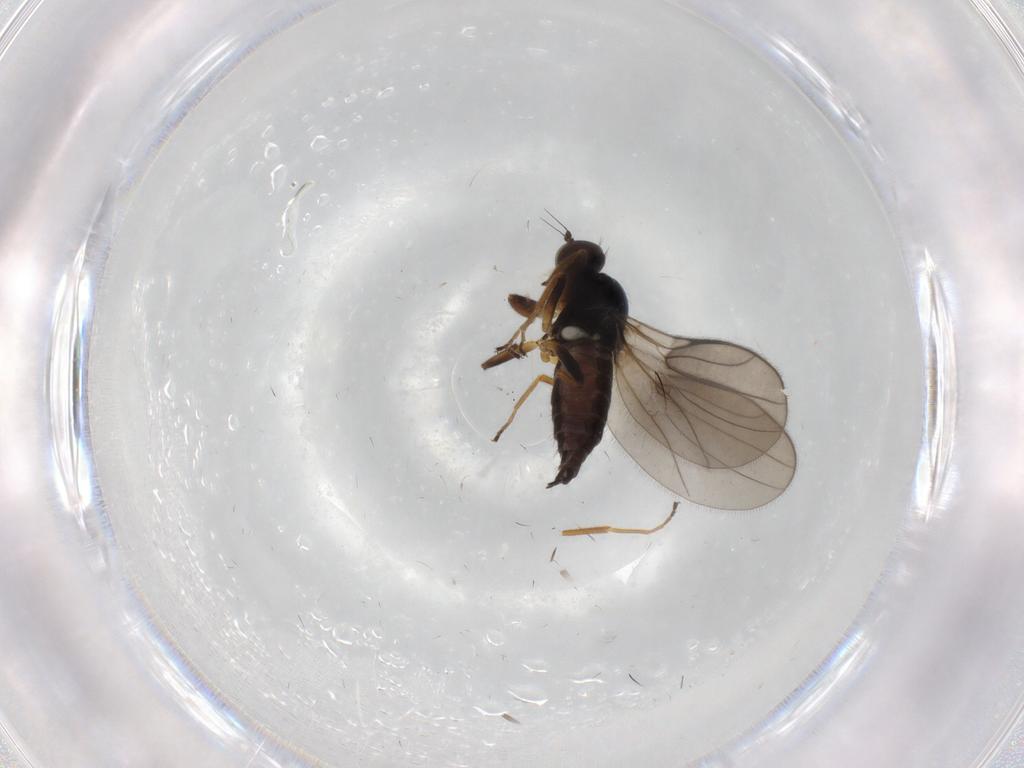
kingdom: Animalia
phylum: Arthropoda
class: Insecta
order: Diptera
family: Hybotidae
